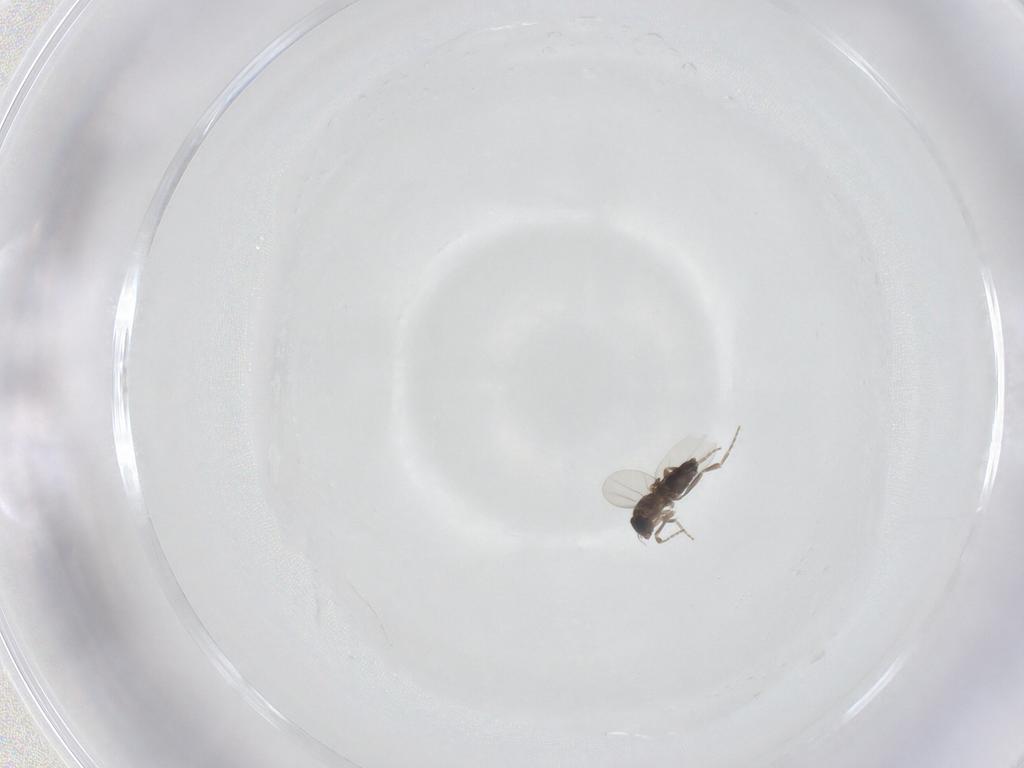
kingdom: Animalia
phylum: Arthropoda
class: Insecta
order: Diptera
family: Phoridae
